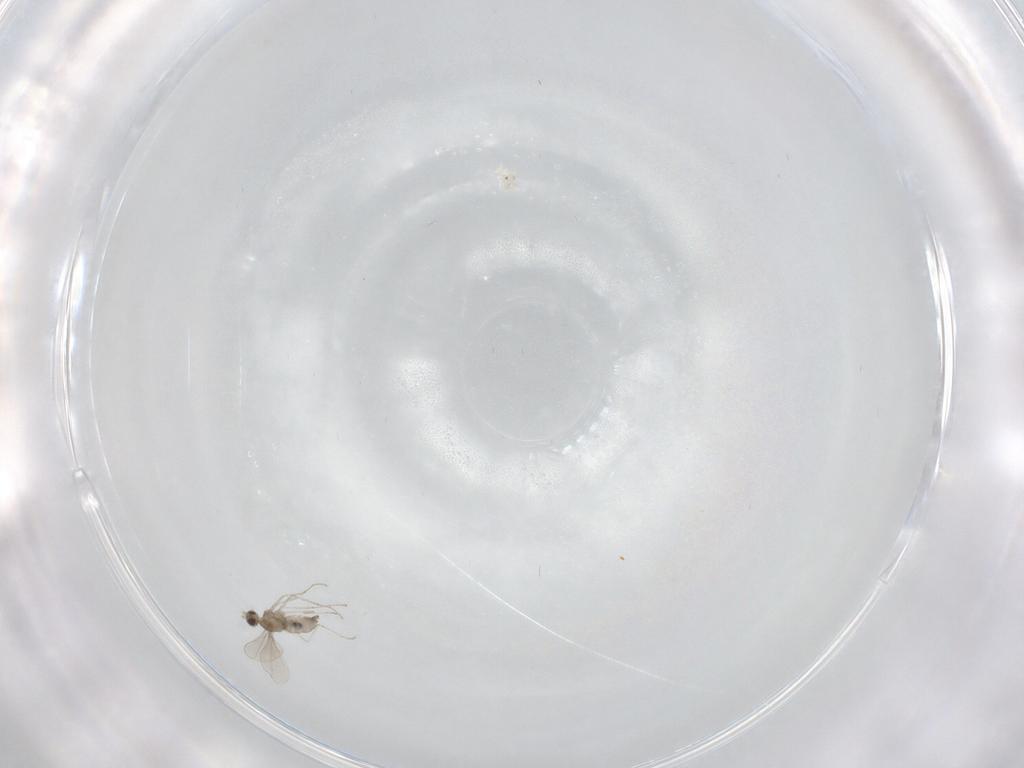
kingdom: Animalia
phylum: Arthropoda
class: Insecta
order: Diptera
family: Cecidomyiidae
